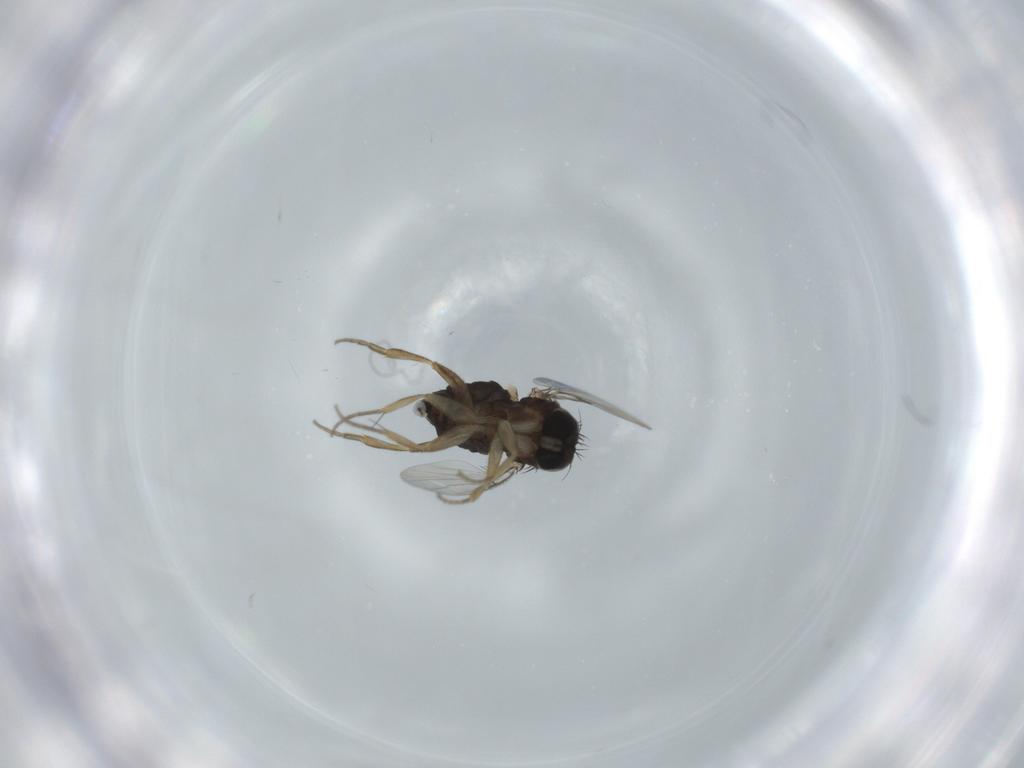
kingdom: Animalia
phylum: Arthropoda
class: Insecta
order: Diptera
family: Phoridae
